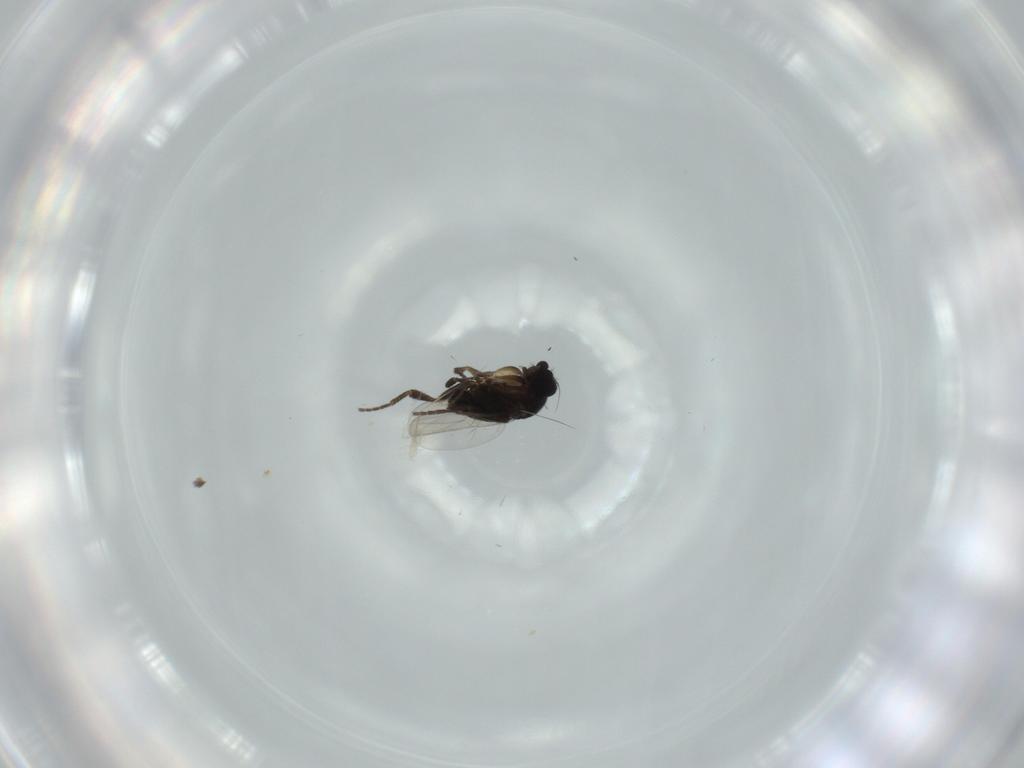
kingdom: Animalia
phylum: Arthropoda
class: Insecta
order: Diptera
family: Phoridae
